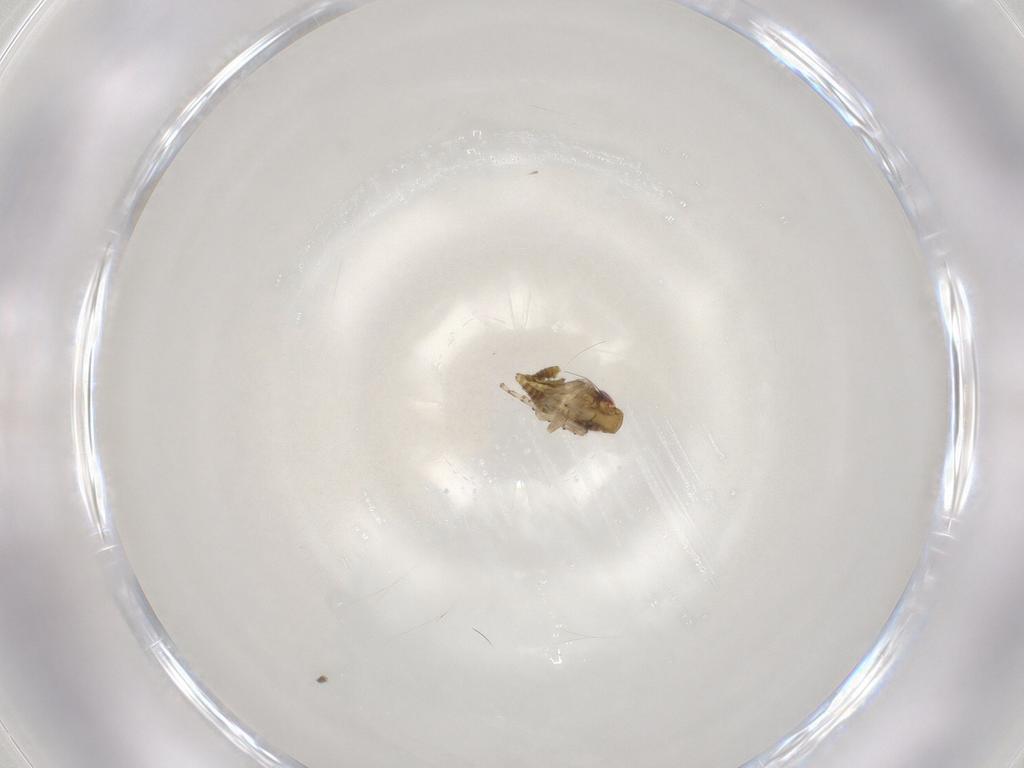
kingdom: Animalia
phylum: Arthropoda
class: Insecta
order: Hemiptera
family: Cicadellidae
